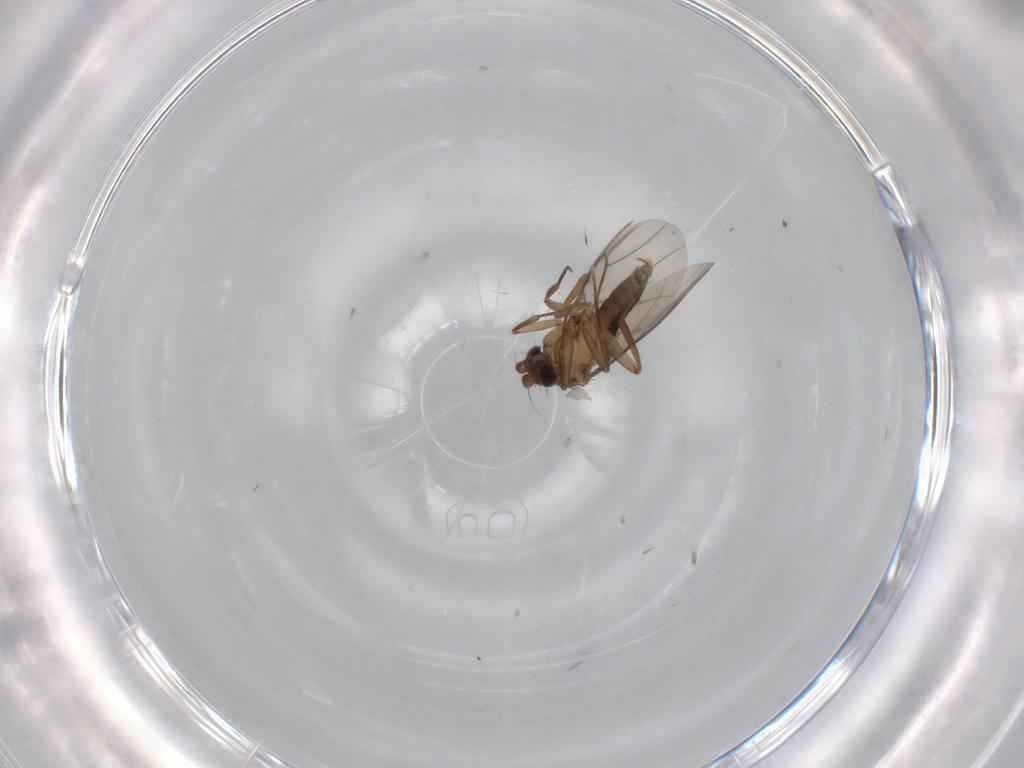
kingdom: Animalia
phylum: Arthropoda
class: Insecta
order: Diptera
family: Phoridae
